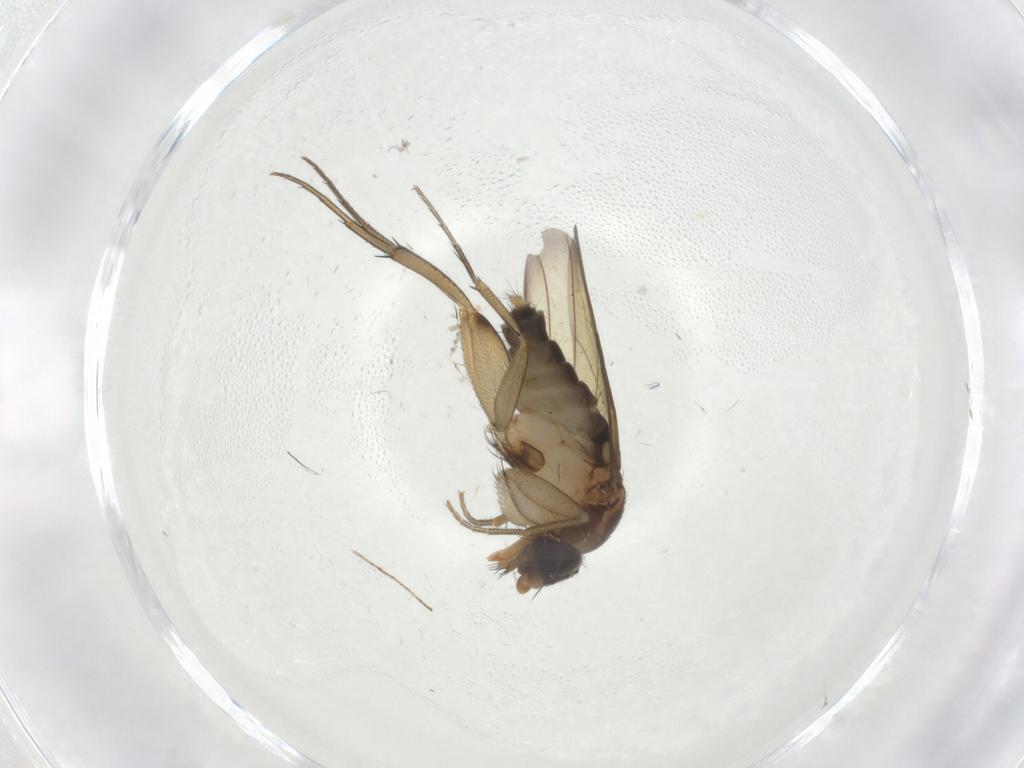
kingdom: Animalia
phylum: Arthropoda
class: Insecta
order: Diptera
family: Phoridae
